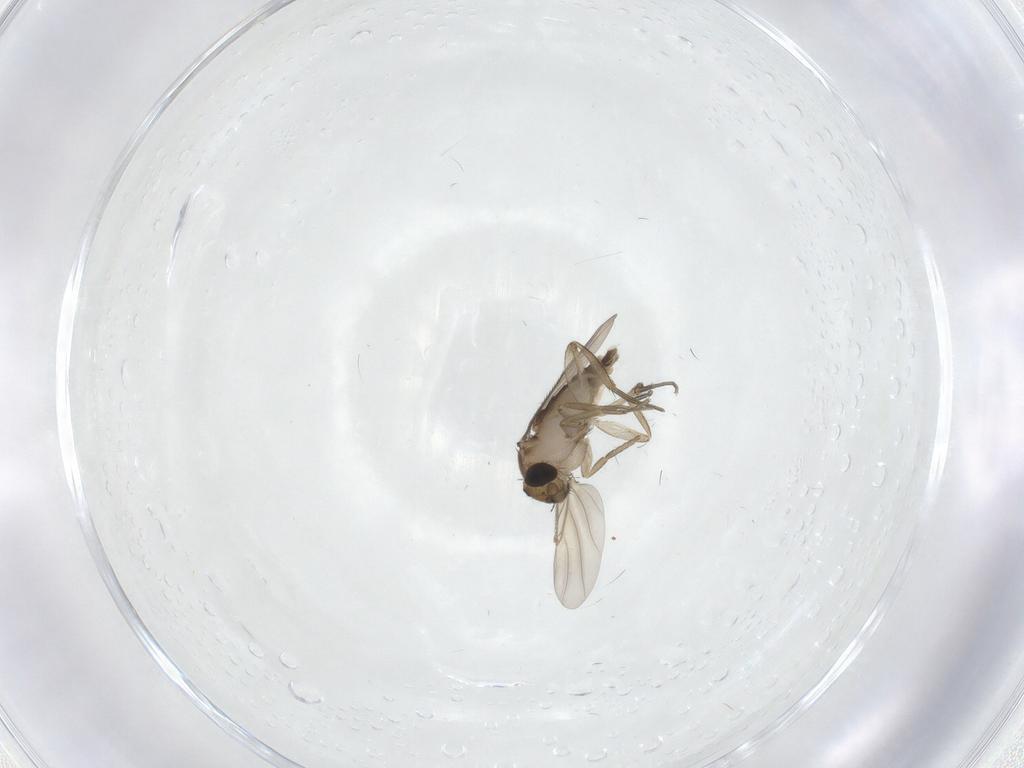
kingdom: Animalia
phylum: Arthropoda
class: Insecta
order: Diptera
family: Phoridae
